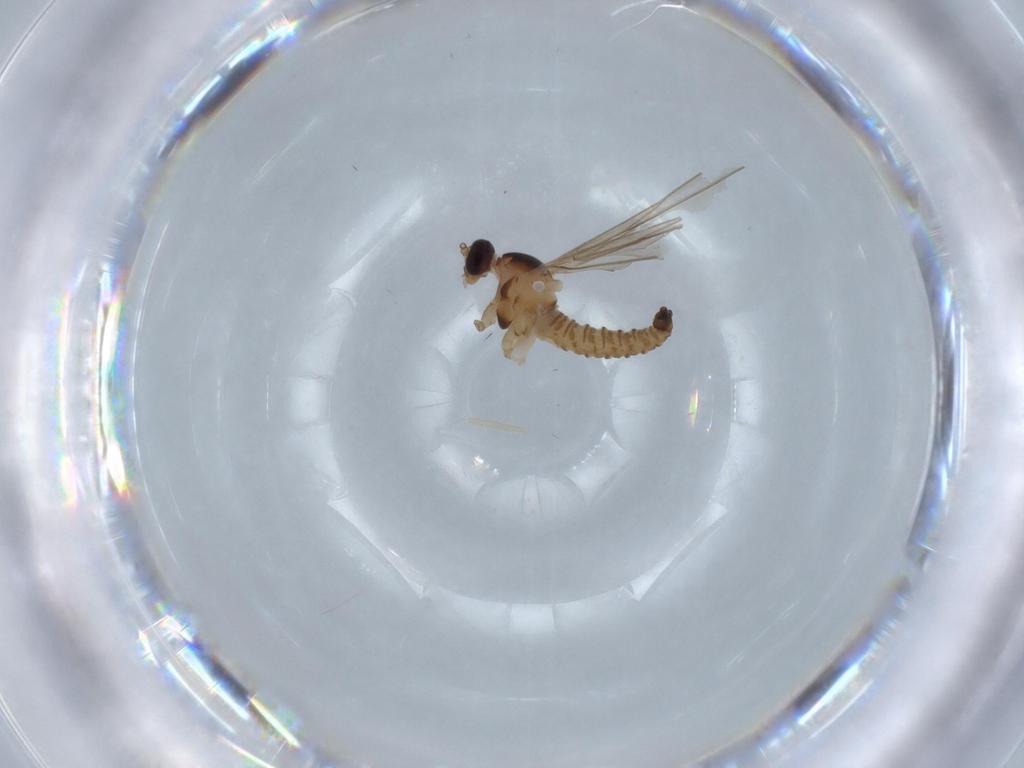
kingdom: Animalia
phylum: Arthropoda
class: Insecta
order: Diptera
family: Cecidomyiidae
